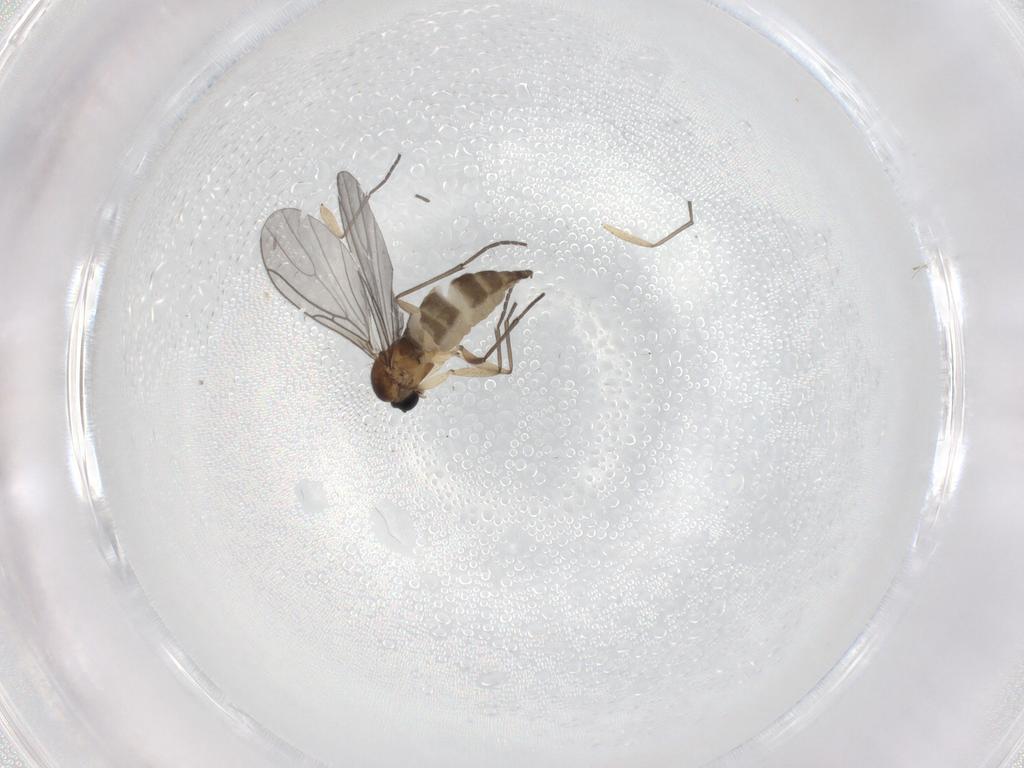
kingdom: Animalia
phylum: Arthropoda
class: Insecta
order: Diptera
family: Sciaridae
